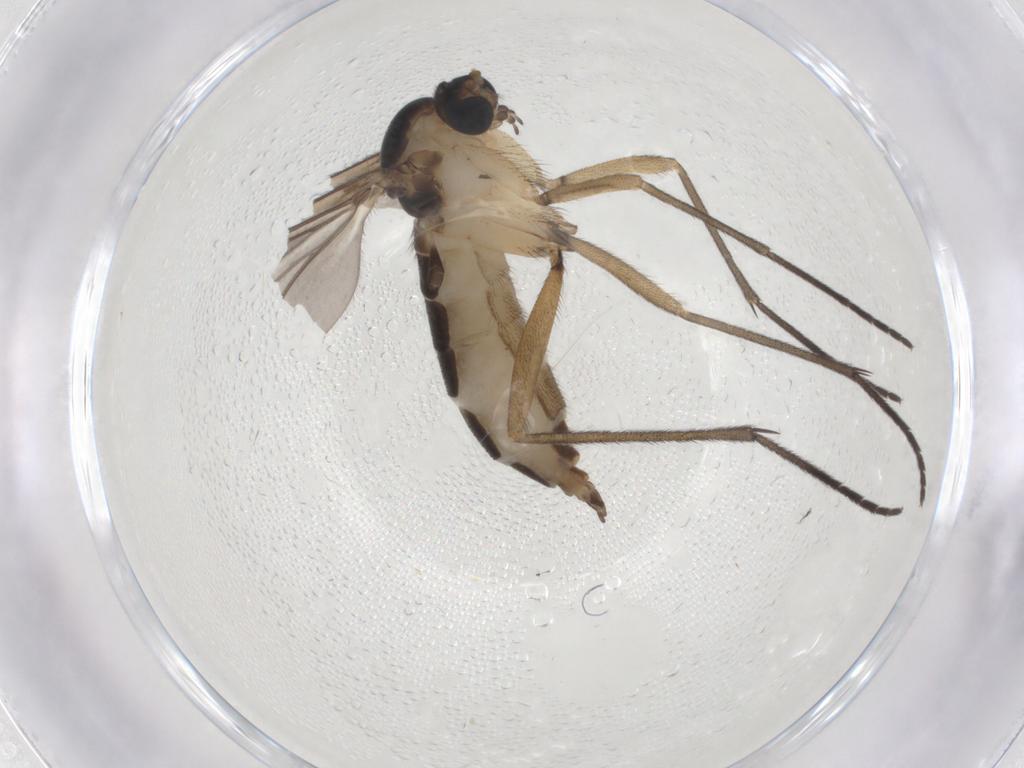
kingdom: Animalia
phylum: Arthropoda
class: Insecta
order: Diptera
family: Sciaridae
